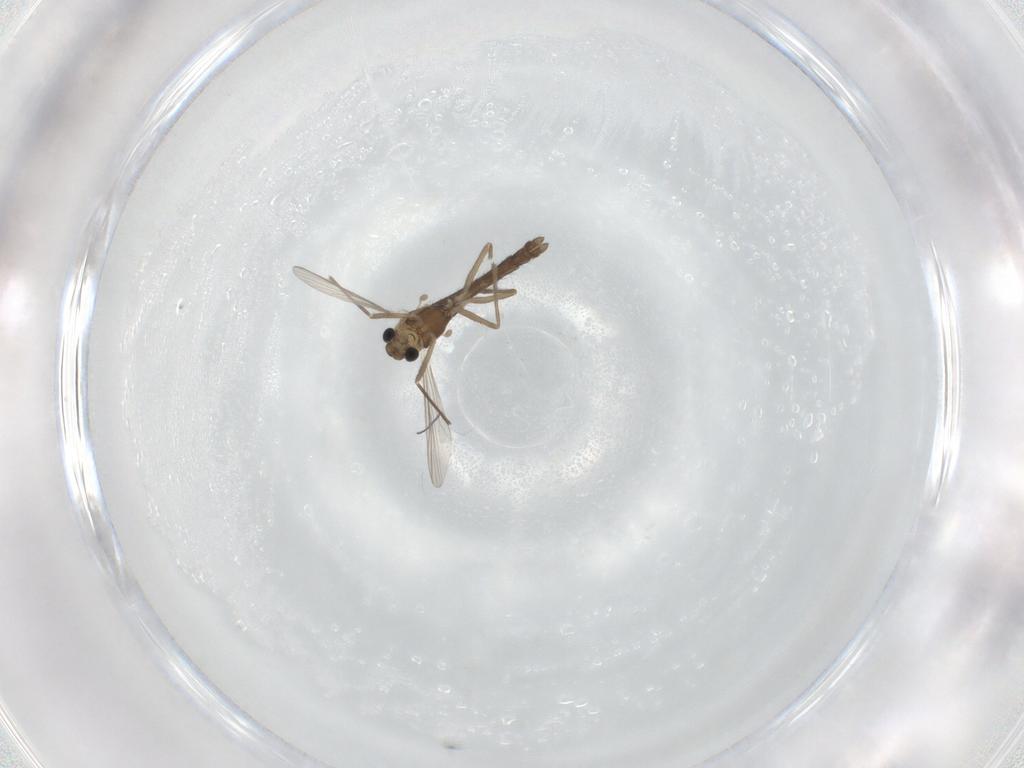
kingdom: Animalia
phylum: Arthropoda
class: Insecta
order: Diptera
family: Chironomidae
